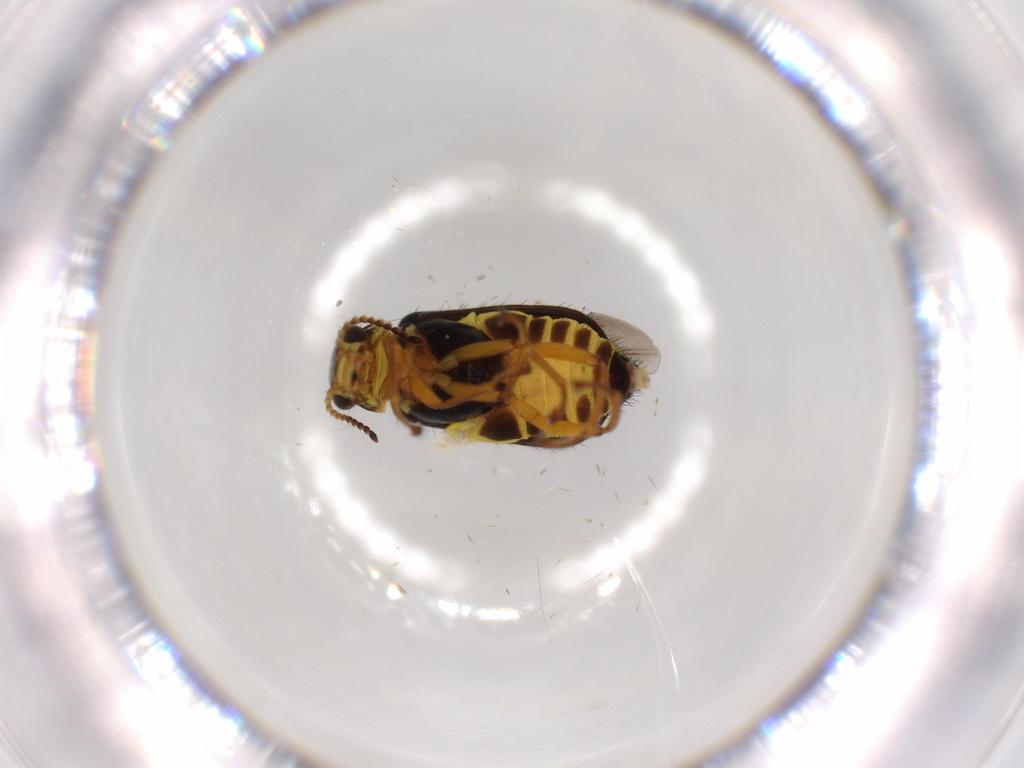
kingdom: Animalia
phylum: Arthropoda
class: Insecta
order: Coleoptera
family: Melyridae
